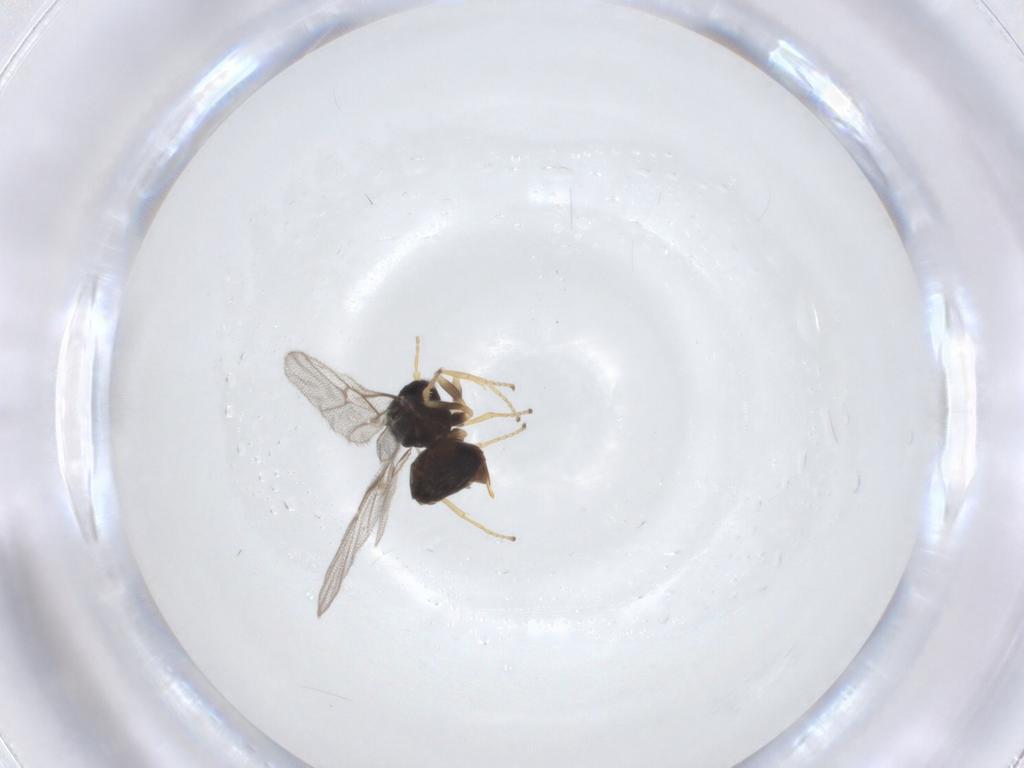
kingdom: Animalia
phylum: Arthropoda
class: Insecta
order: Hymenoptera
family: Cynipidae
